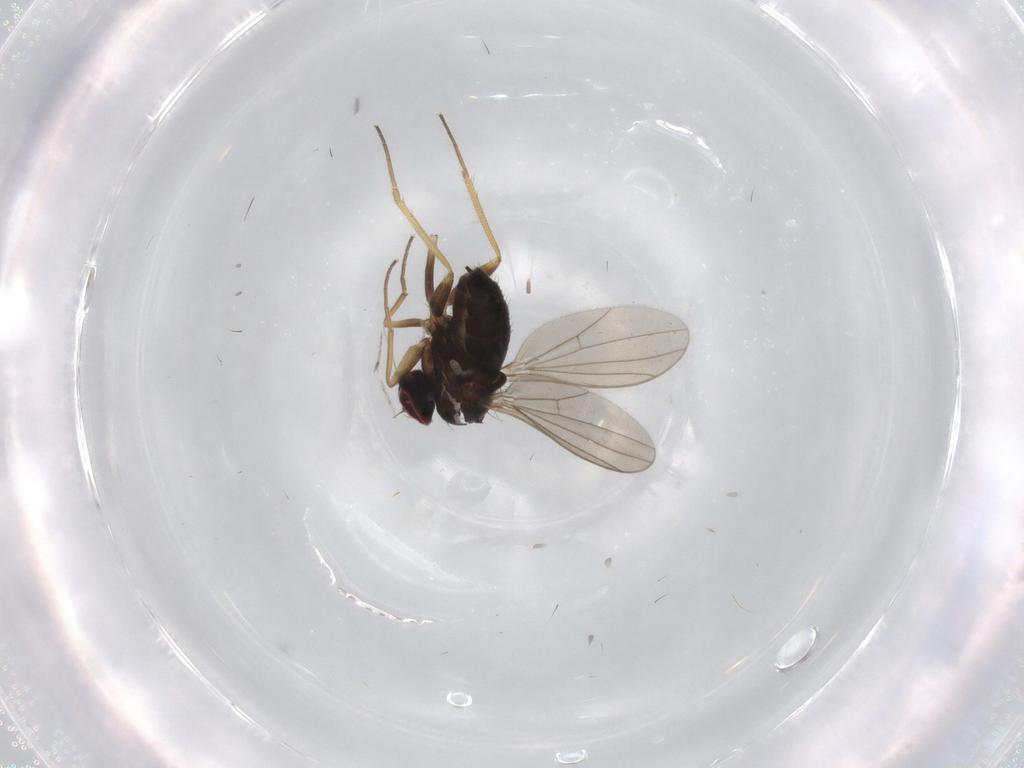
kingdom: Animalia
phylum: Arthropoda
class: Insecta
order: Diptera
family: Dolichopodidae
